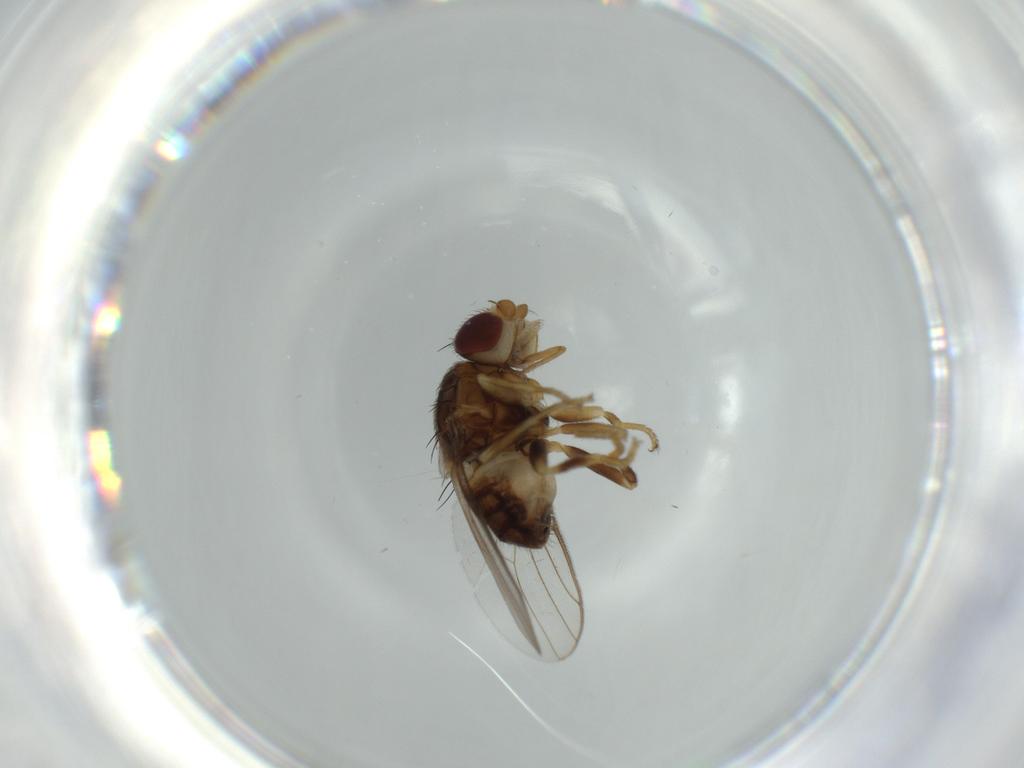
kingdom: Animalia
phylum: Arthropoda
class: Insecta
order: Diptera
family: Chloropidae
